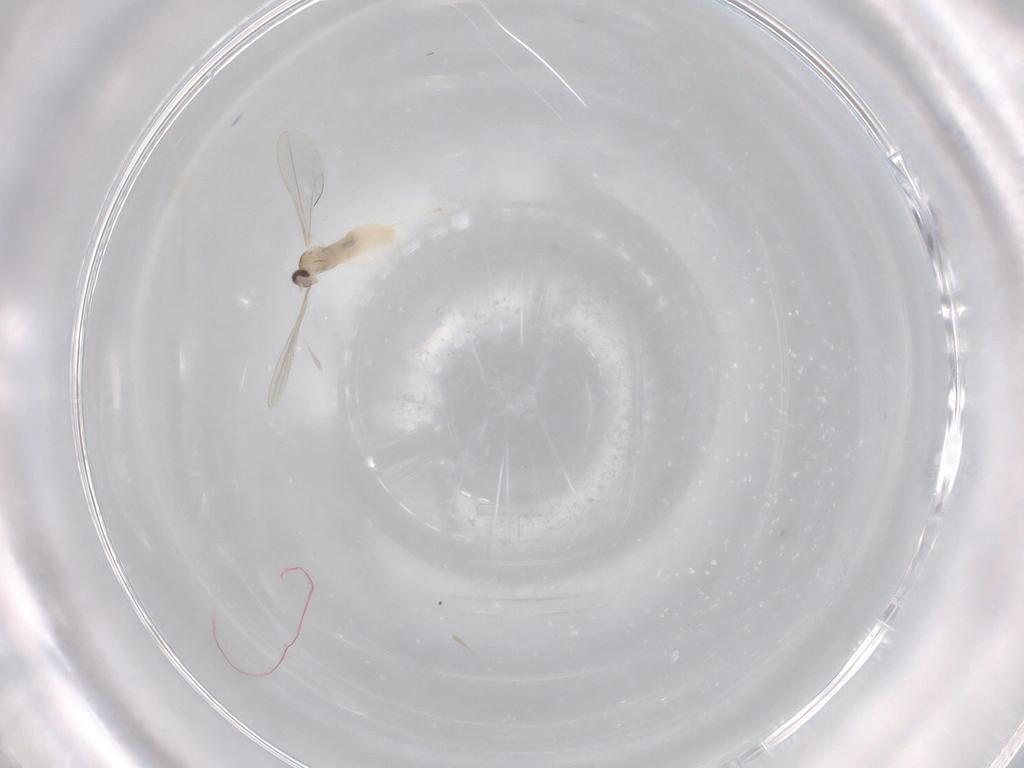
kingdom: Animalia
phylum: Arthropoda
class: Insecta
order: Diptera
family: Cecidomyiidae
